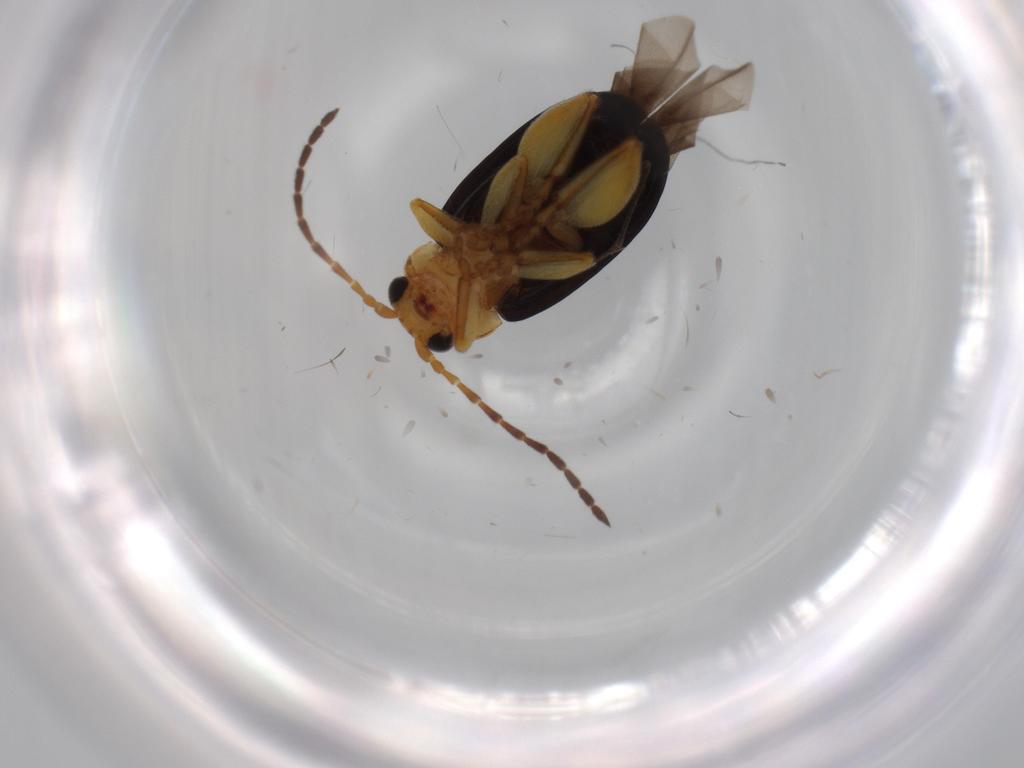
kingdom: Animalia
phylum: Arthropoda
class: Insecta
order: Coleoptera
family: Chrysomelidae
